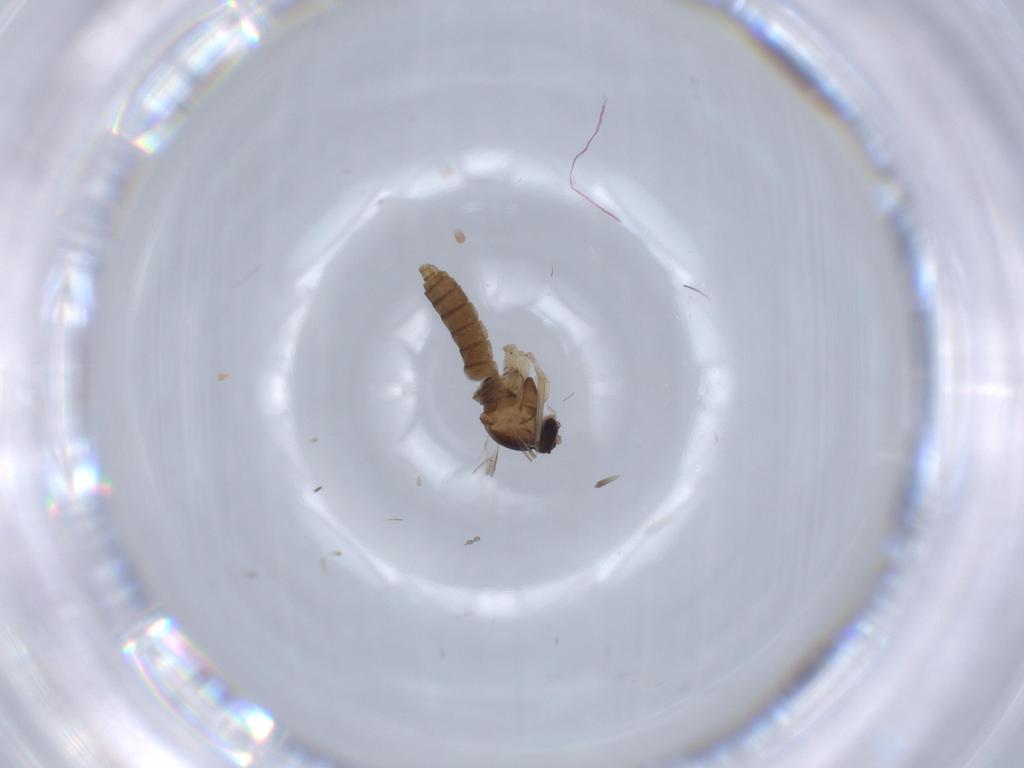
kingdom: Animalia
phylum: Arthropoda
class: Insecta
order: Diptera
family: Cecidomyiidae
